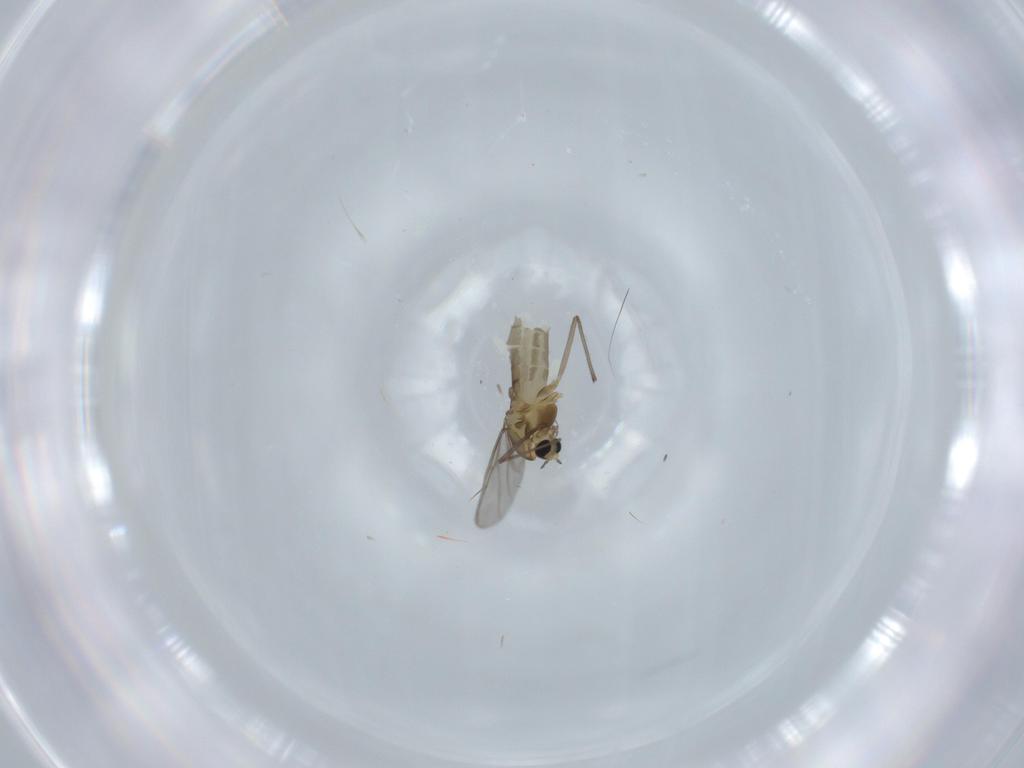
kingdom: Animalia
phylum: Arthropoda
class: Insecta
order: Diptera
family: Chironomidae
